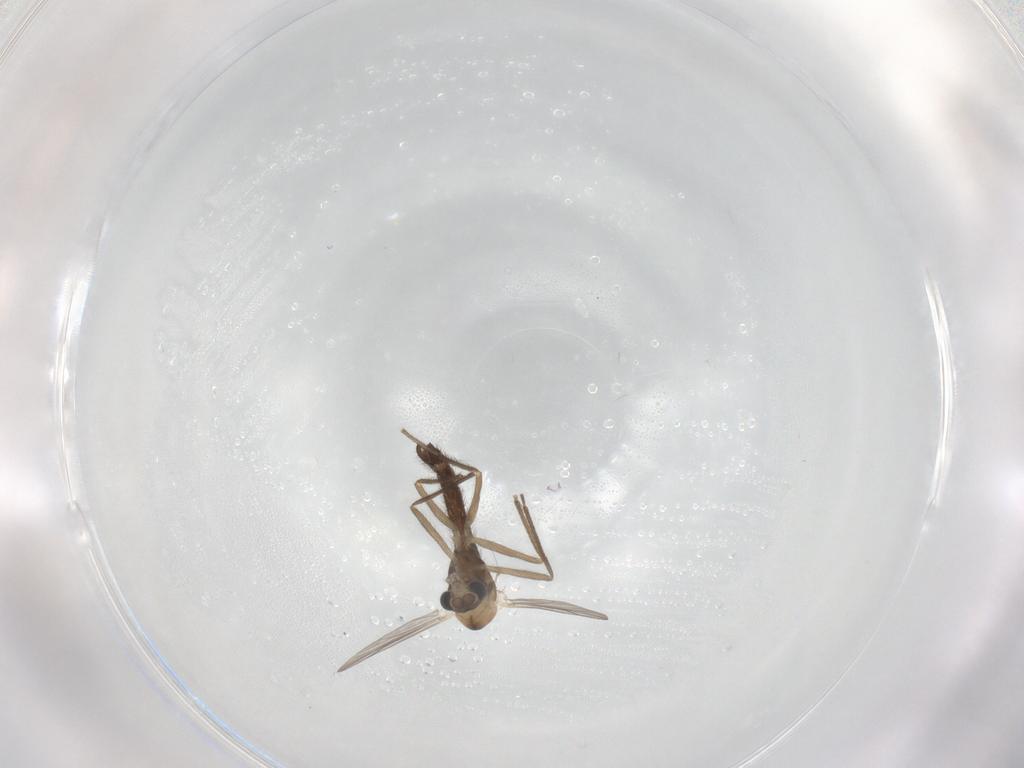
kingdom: Animalia
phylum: Arthropoda
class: Insecta
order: Diptera
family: Chironomidae
